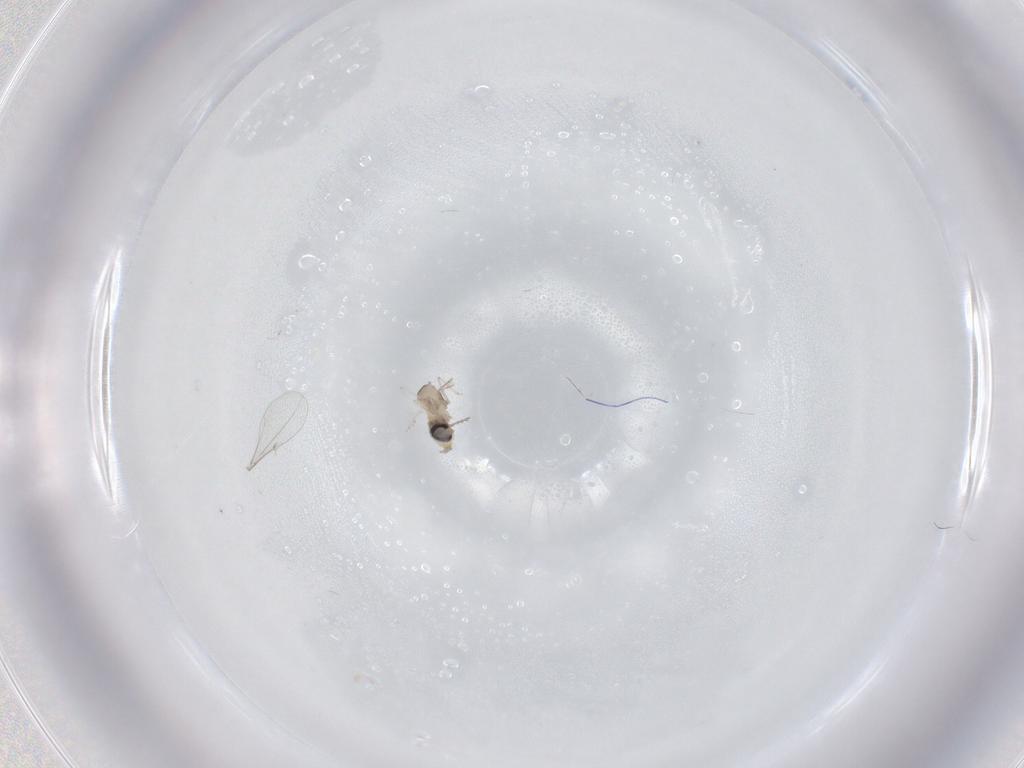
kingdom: Animalia
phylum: Arthropoda
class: Insecta
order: Diptera
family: Cecidomyiidae
